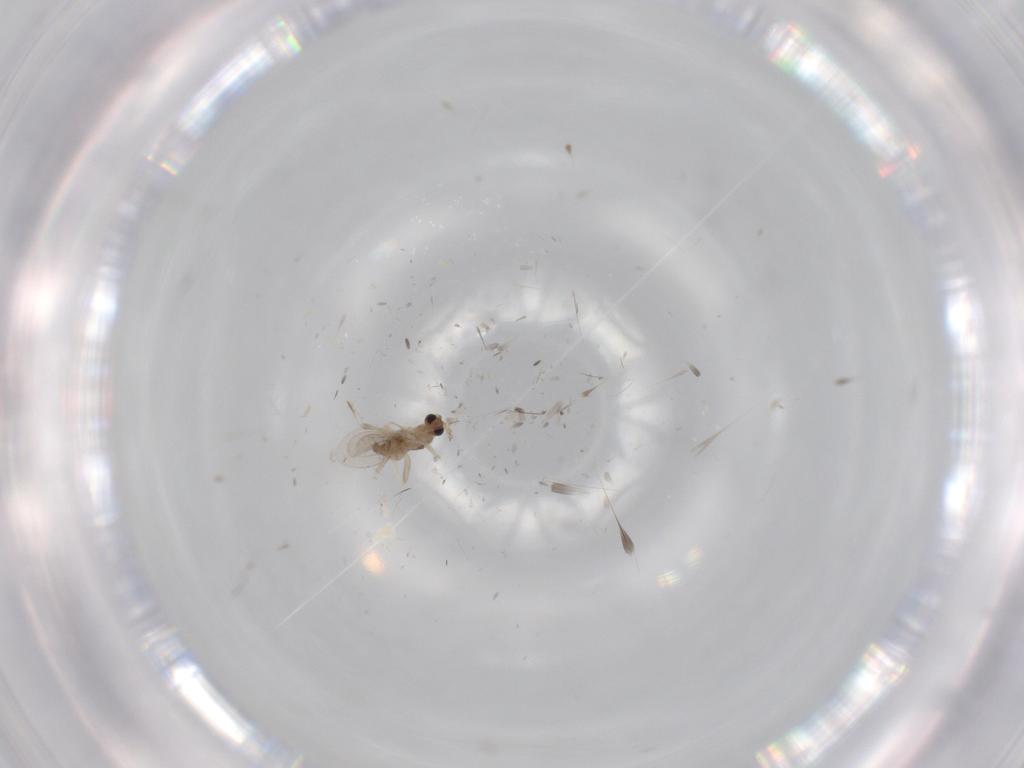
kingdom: Animalia
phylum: Arthropoda
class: Insecta
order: Diptera
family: Cecidomyiidae
